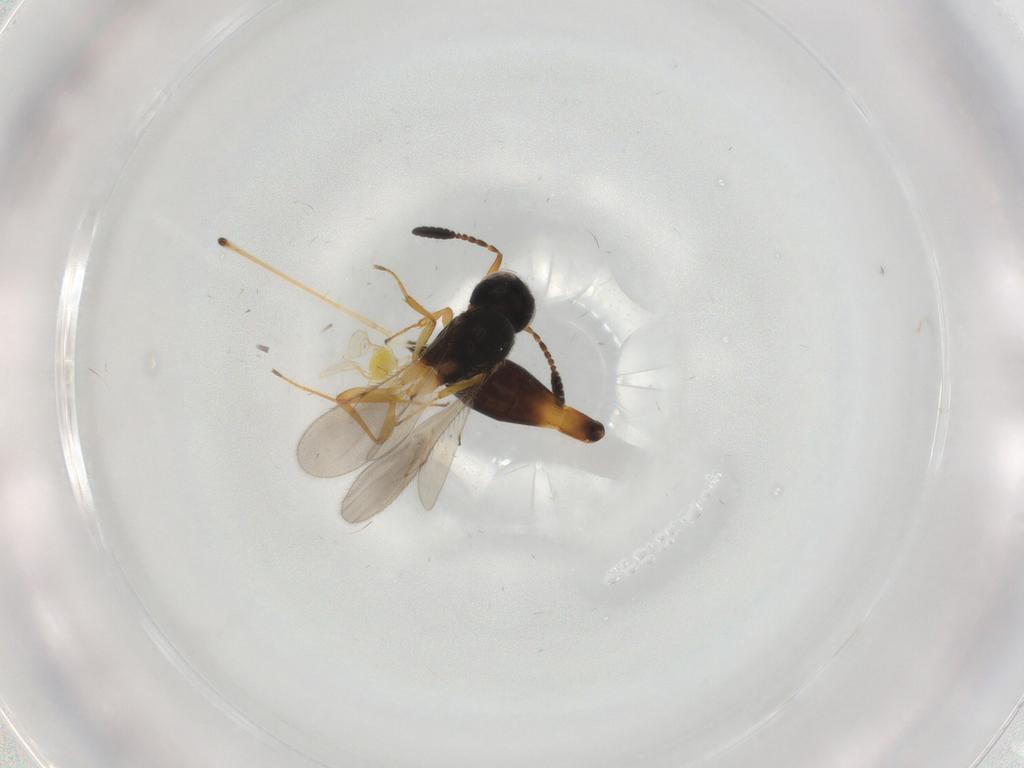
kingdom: Animalia
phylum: Arthropoda
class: Insecta
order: Hymenoptera
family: Scelionidae
